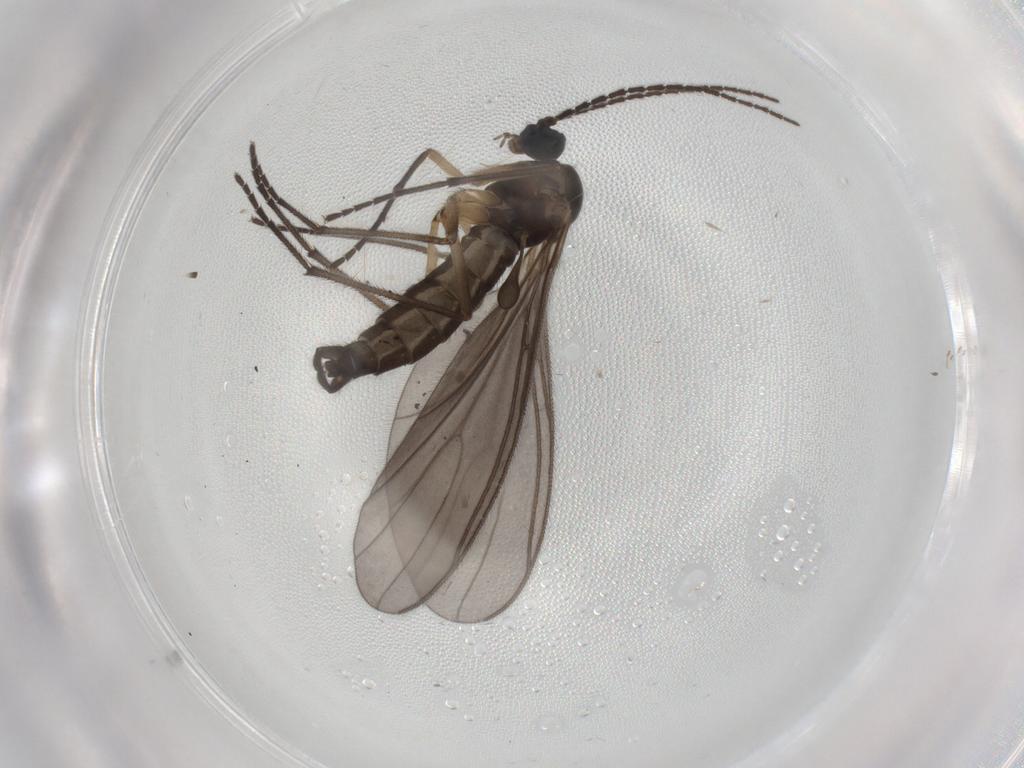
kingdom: Animalia
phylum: Arthropoda
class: Insecta
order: Diptera
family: Sciaridae
